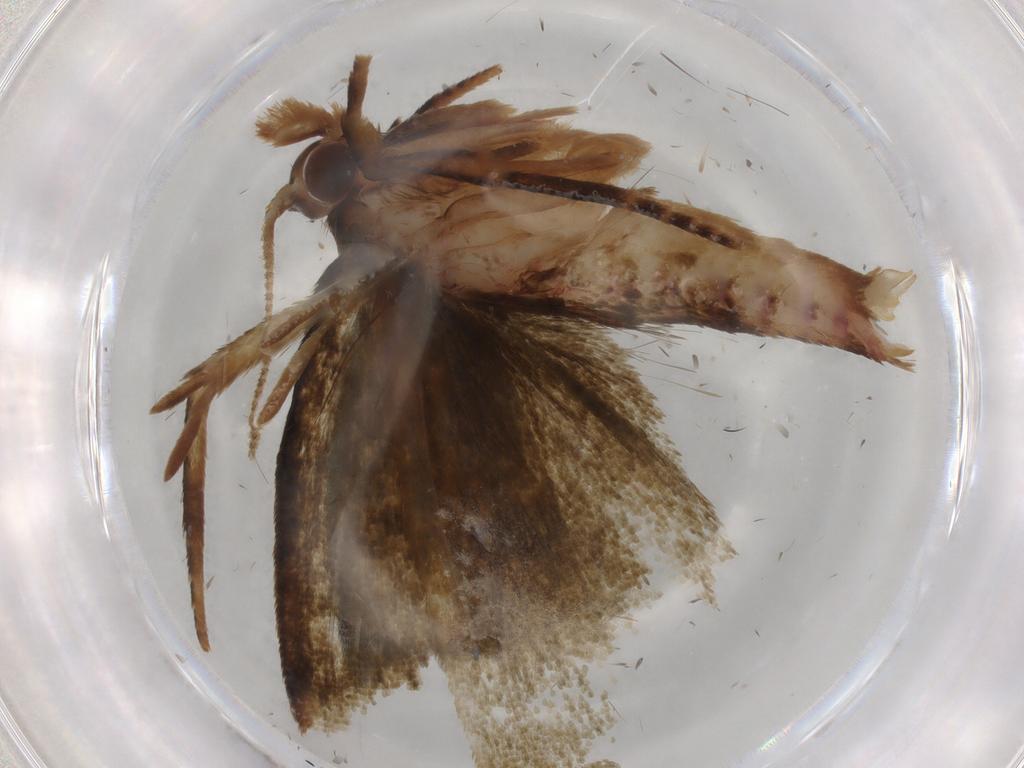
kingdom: Animalia
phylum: Arthropoda
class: Insecta
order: Lepidoptera
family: Geometridae
